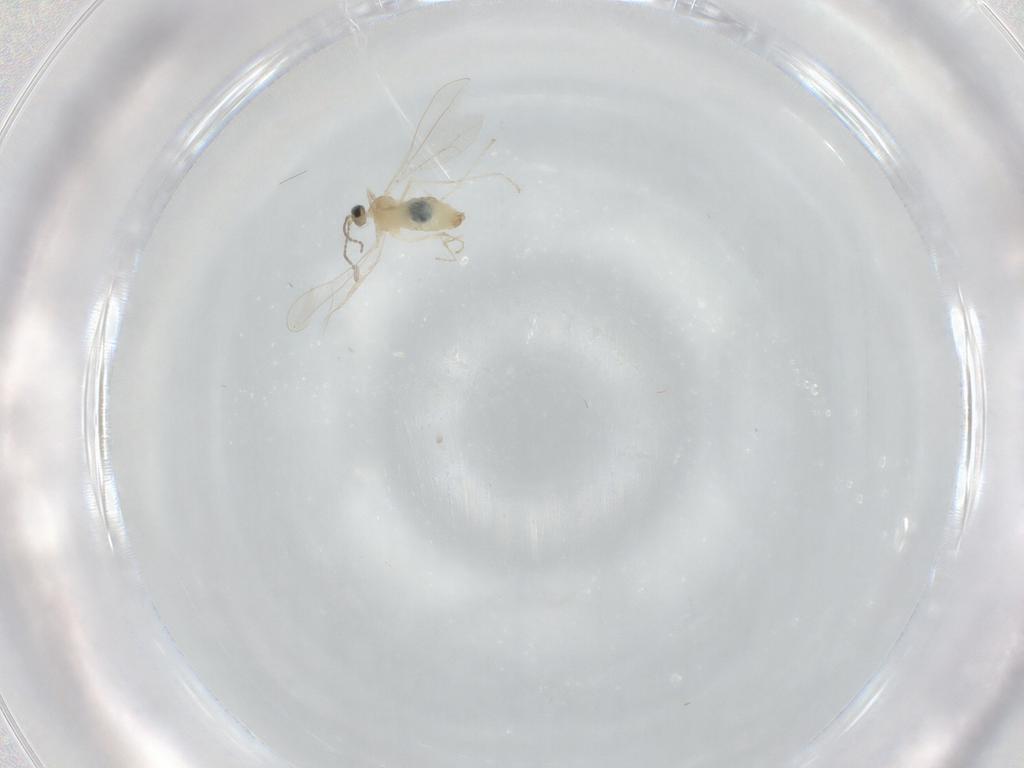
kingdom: Animalia
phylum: Arthropoda
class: Insecta
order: Diptera
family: Cecidomyiidae
